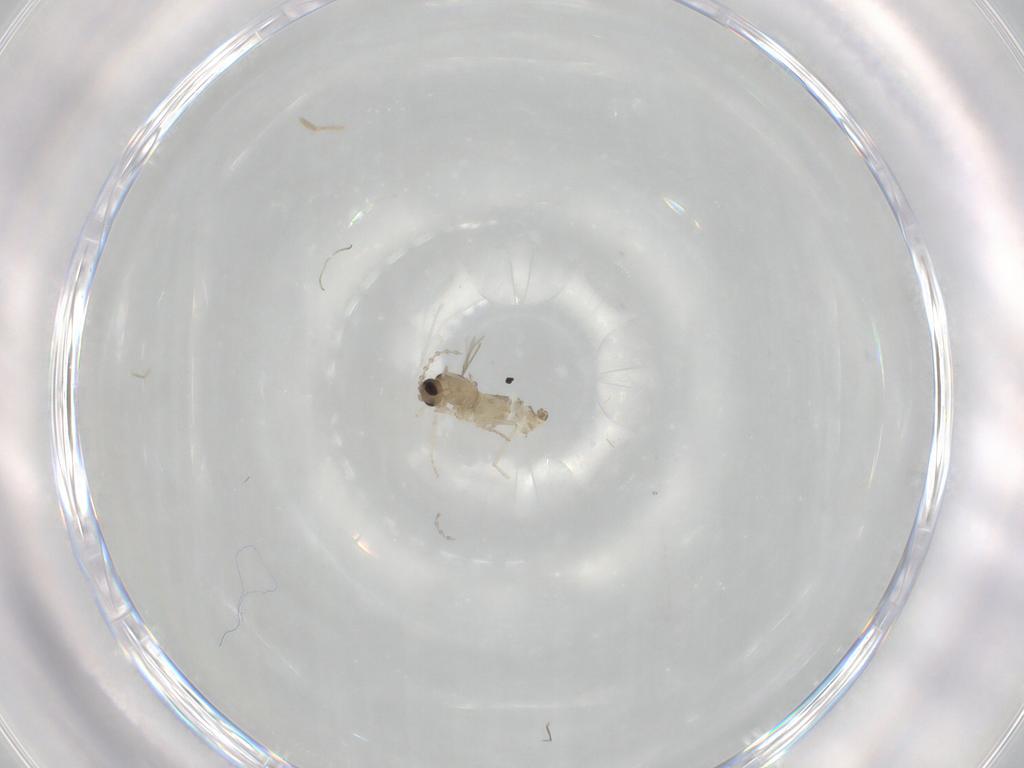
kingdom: Animalia
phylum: Arthropoda
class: Insecta
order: Diptera
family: Cecidomyiidae
